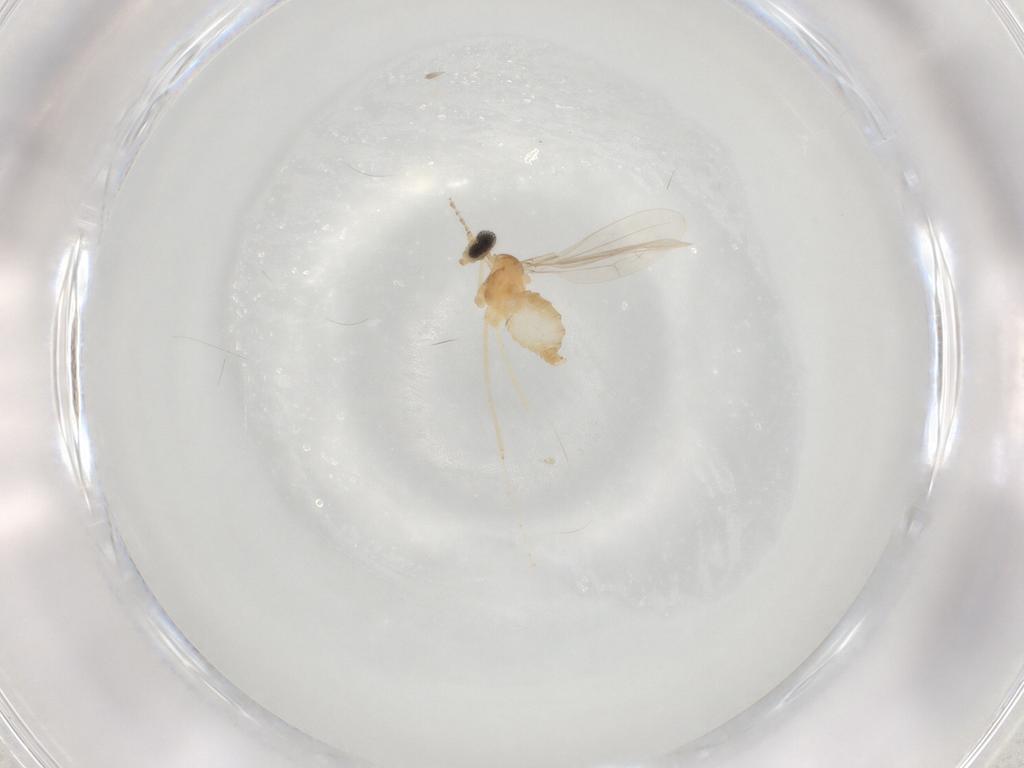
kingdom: Animalia
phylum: Arthropoda
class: Insecta
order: Diptera
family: Cecidomyiidae
